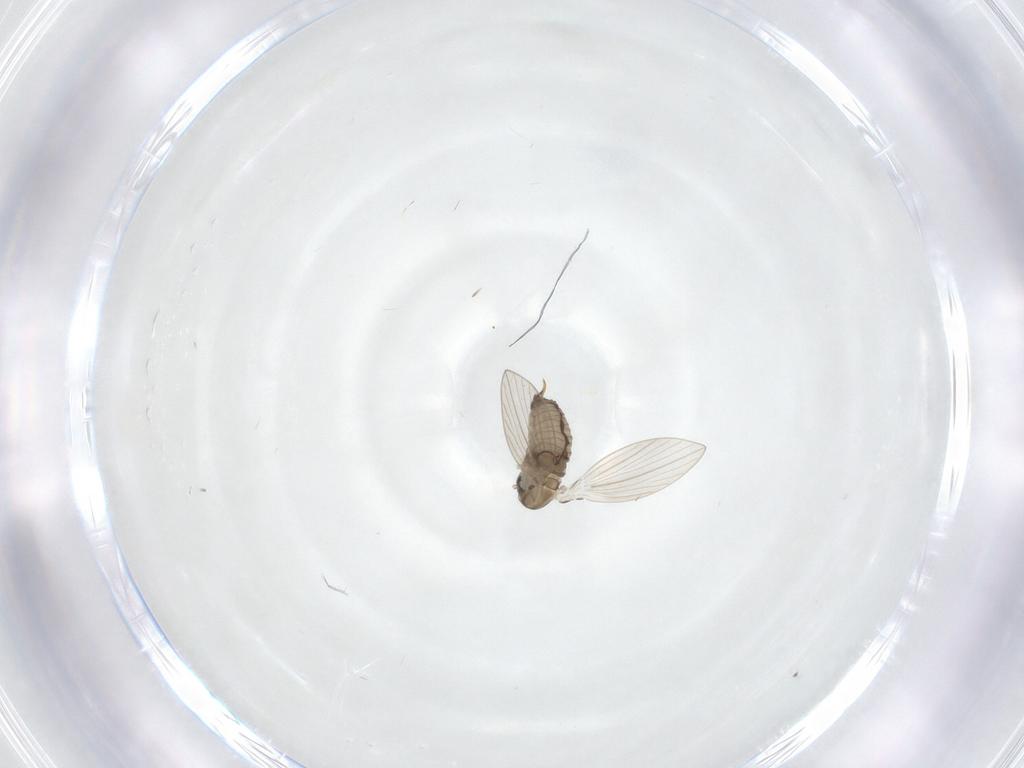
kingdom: Animalia
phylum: Arthropoda
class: Insecta
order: Diptera
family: Psychodidae
